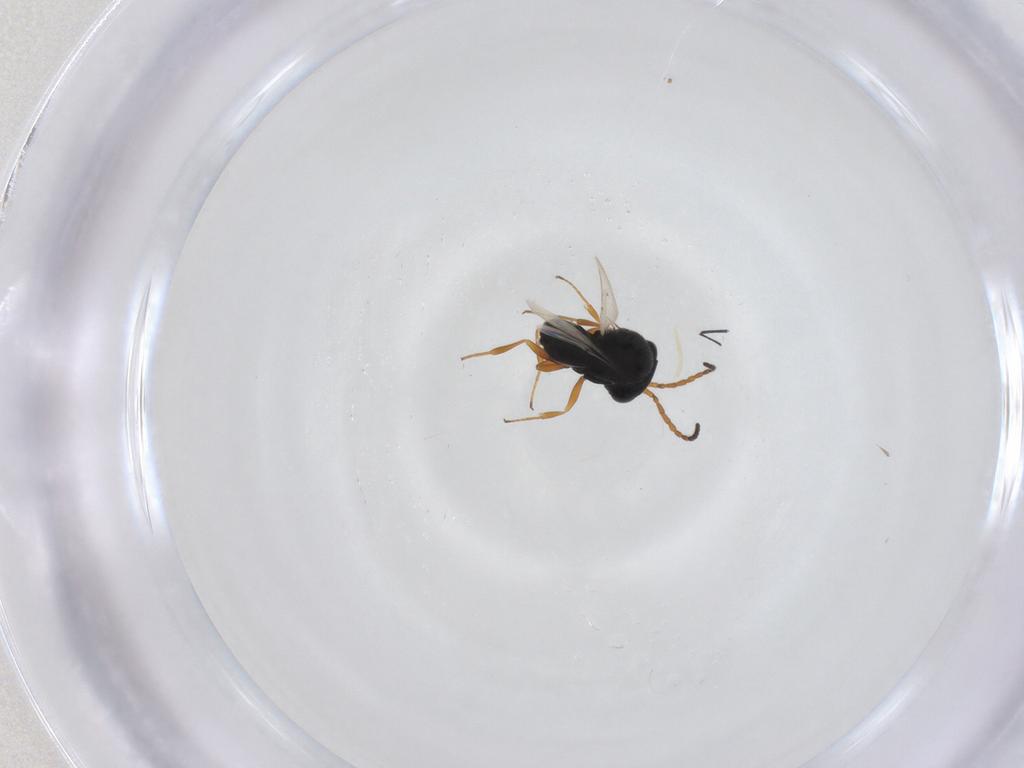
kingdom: Animalia
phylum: Arthropoda
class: Insecta
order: Hymenoptera
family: Scelionidae
